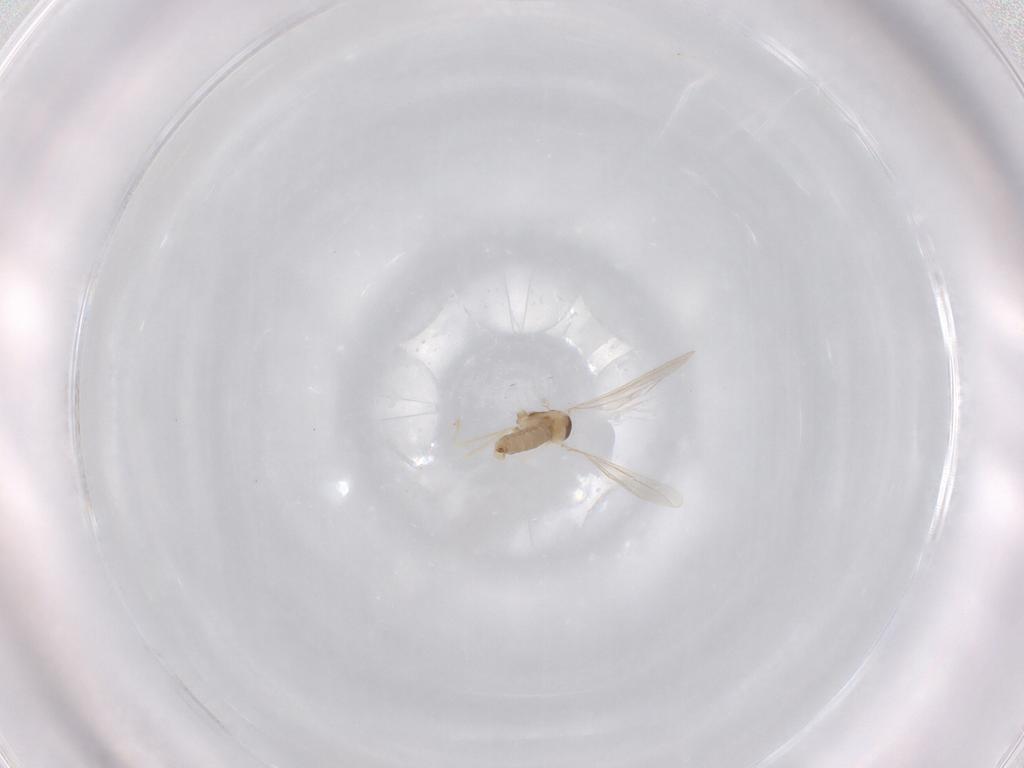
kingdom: Animalia
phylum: Arthropoda
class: Insecta
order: Diptera
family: Cecidomyiidae
